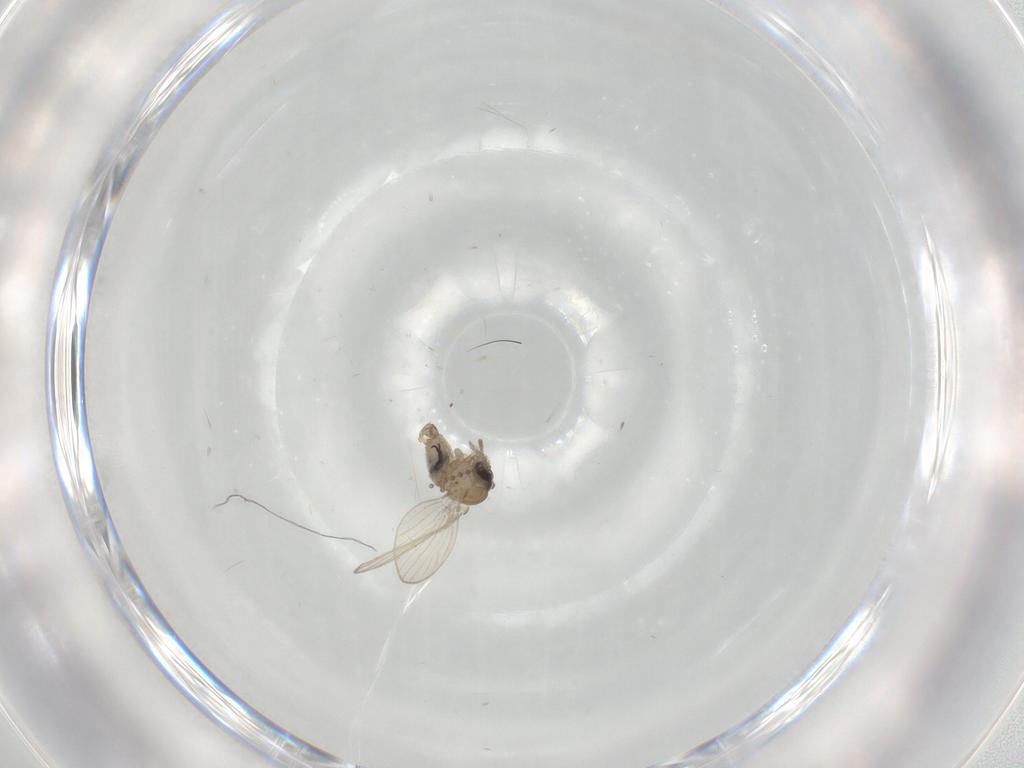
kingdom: Animalia
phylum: Arthropoda
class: Insecta
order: Diptera
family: Psychodidae
